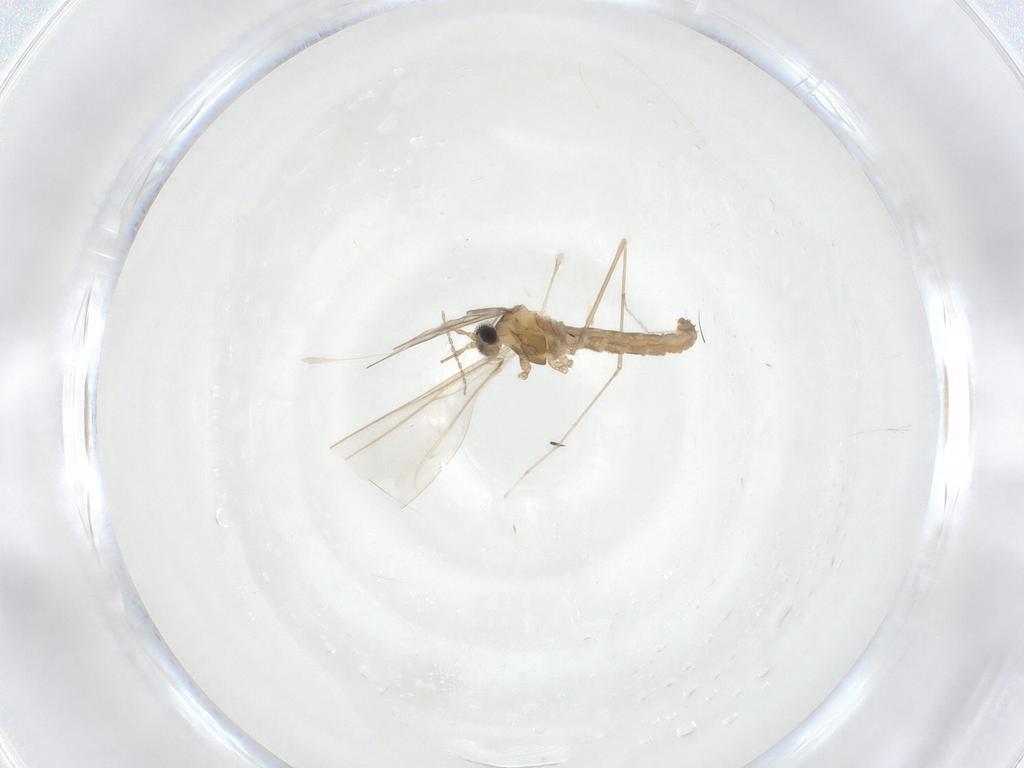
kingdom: Animalia
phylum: Arthropoda
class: Insecta
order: Diptera
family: Cecidomyiidae
